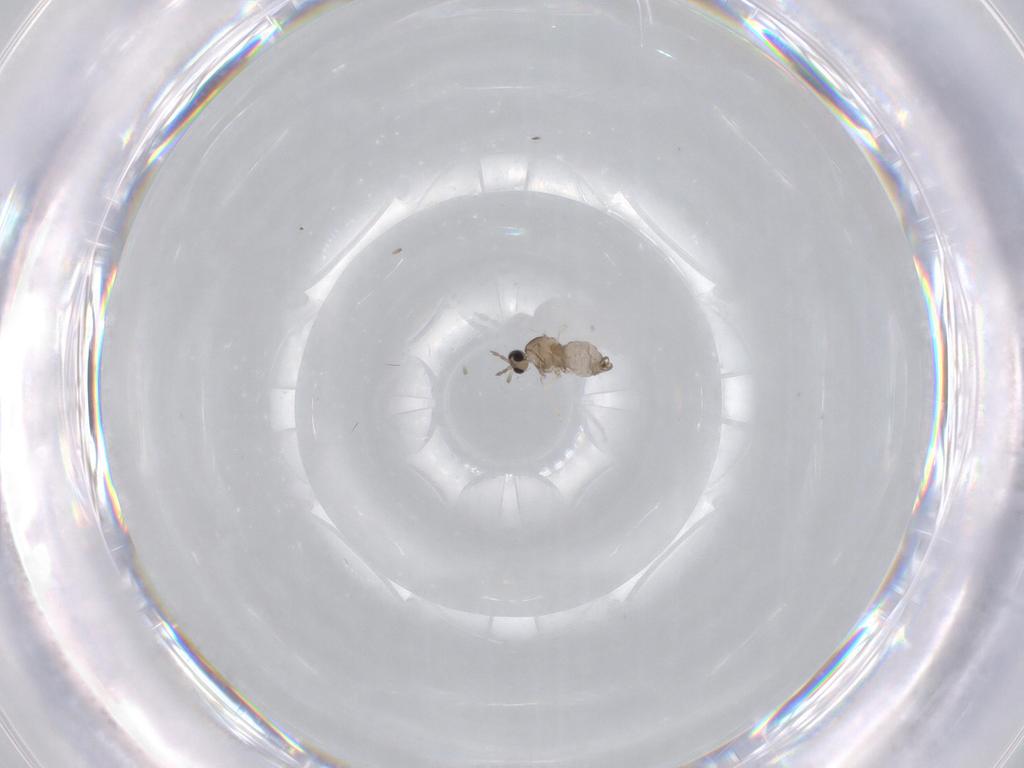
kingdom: Animalia
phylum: Arthropoda
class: Insecta
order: Diptera
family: Cecidomyiidae
